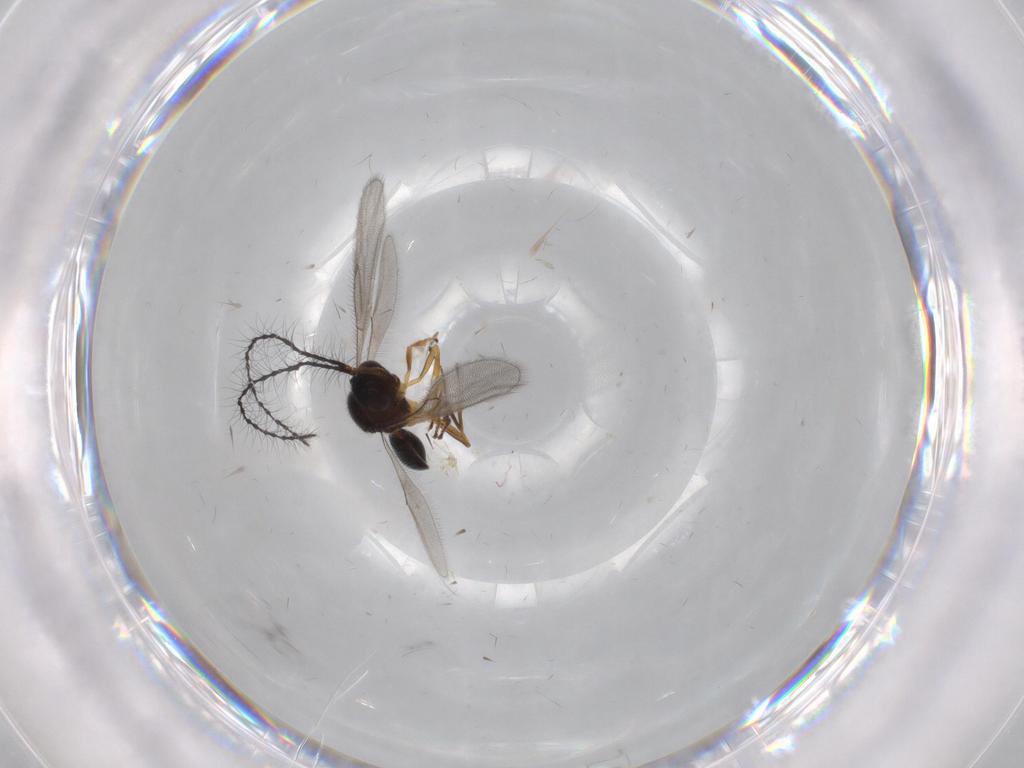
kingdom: Animalia
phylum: Arthropoda
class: Insecta
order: Hymenoptera
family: Scelionidae
